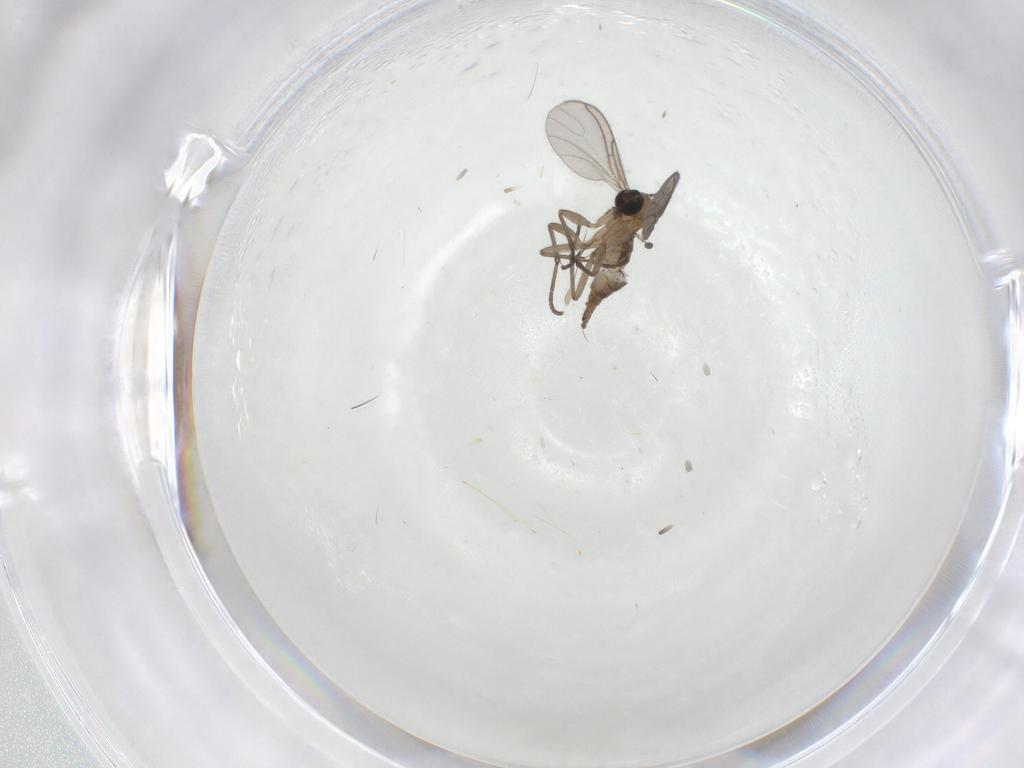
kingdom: Animalia
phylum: Arthropoda
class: Insecta
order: Diptera
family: Sciaridae
